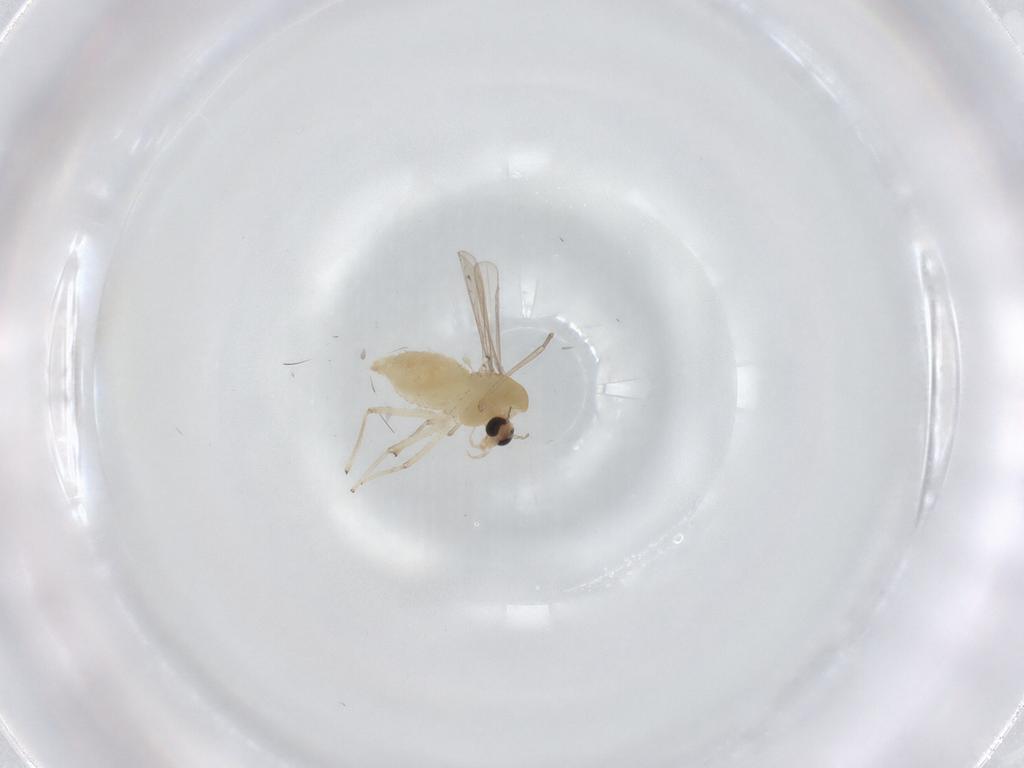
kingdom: Animalia
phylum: Arthropoda
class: Insecta
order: Diptera
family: Chironomidae
